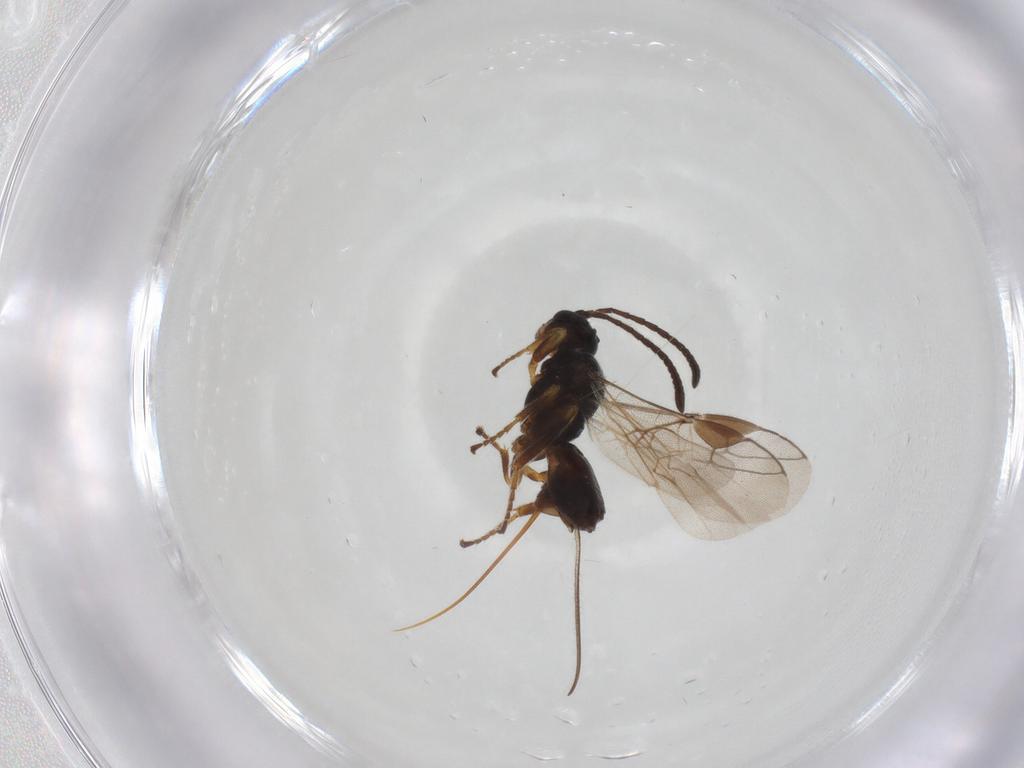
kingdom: Animalia
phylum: Arthropoda
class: Insecta
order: Hymenoptera
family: Braconidae
